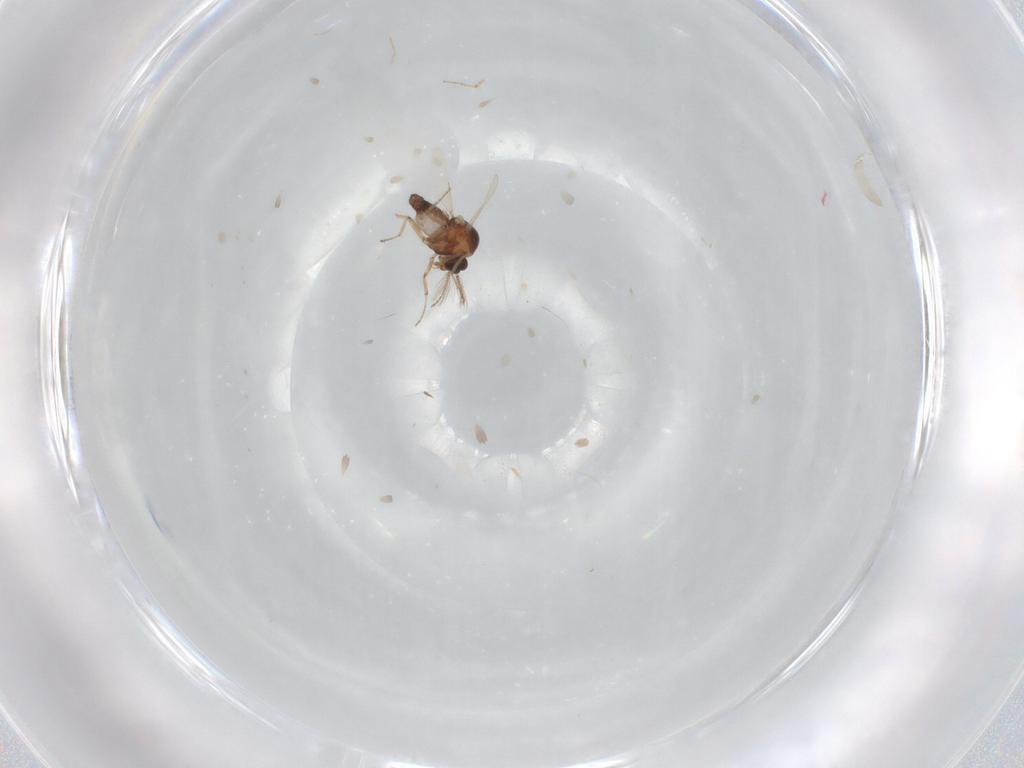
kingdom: Animalia
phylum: Arthropoda
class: Insecta
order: Diptera
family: Ceratopogonidae
